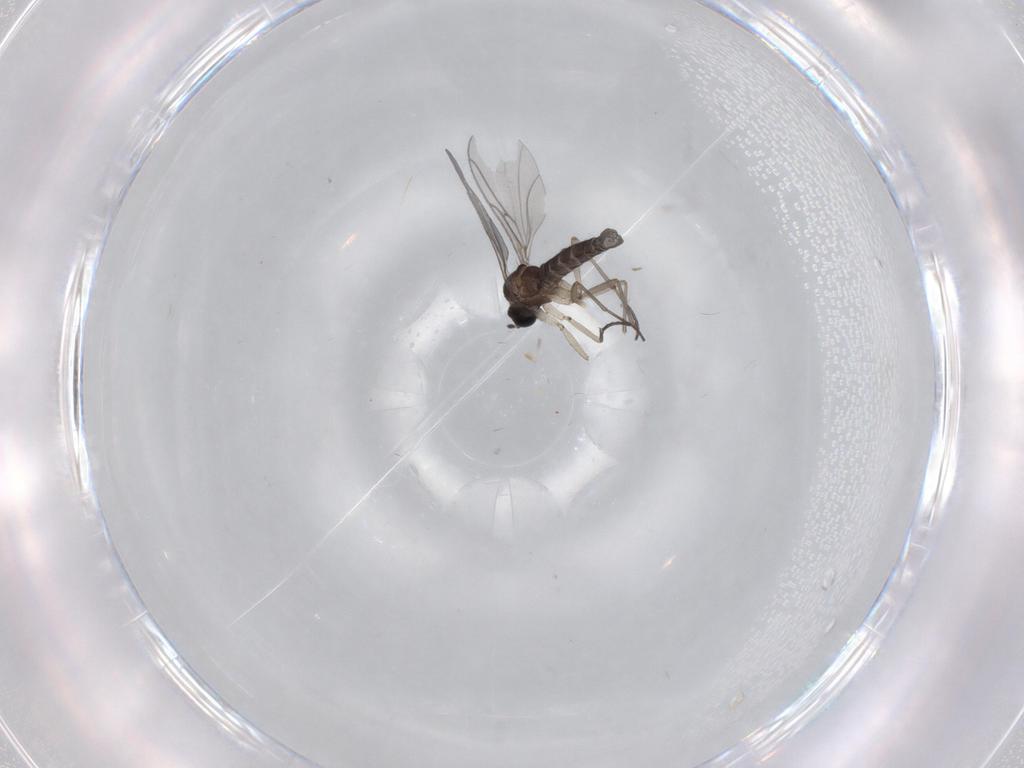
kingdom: Animalia
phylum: Arthropoda
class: Insecta
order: Diptera
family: Sciaridae
